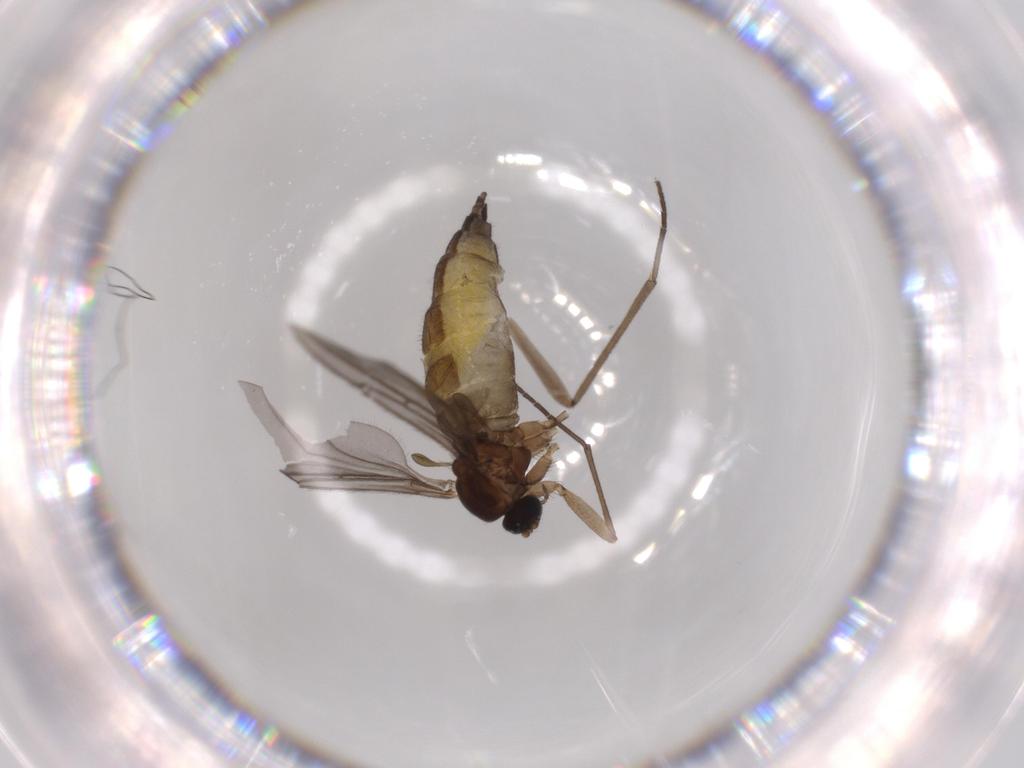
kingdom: Animalia
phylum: Arthropoda
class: Insecta
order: Diptera
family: Sciaridae
